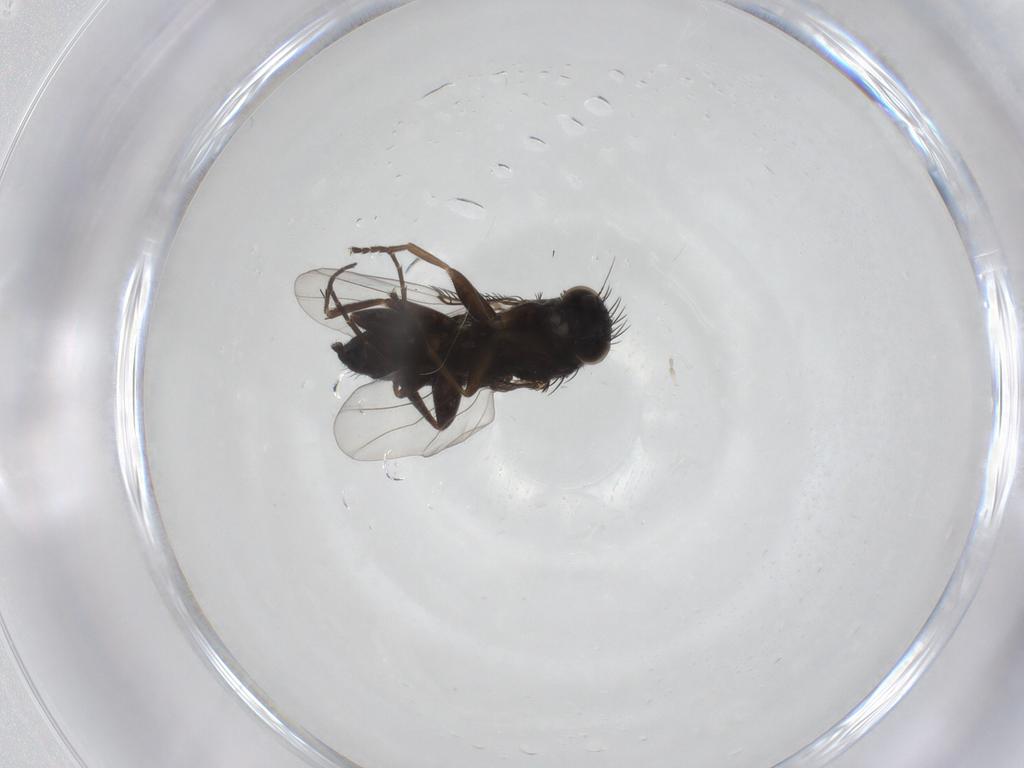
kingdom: Animalia
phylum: Arthropoda
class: Insecta
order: Diptera
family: Phoridae
